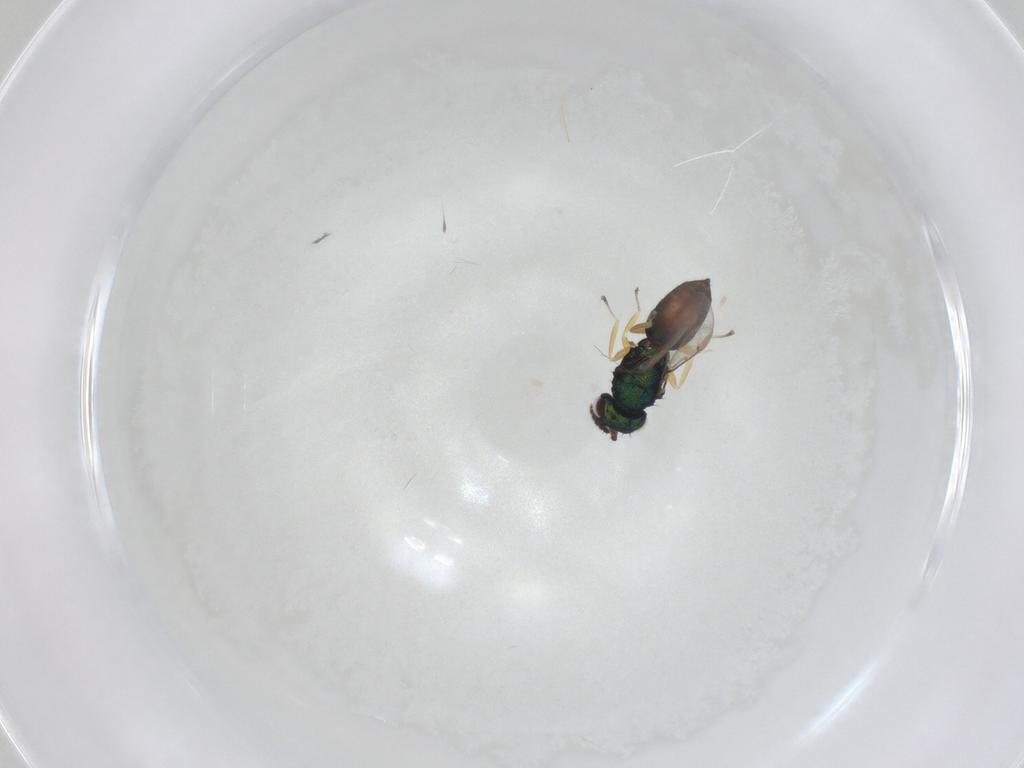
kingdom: Animalia
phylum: Arthropoda
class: Insecta
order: Hymenoptera
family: Eulophidae
